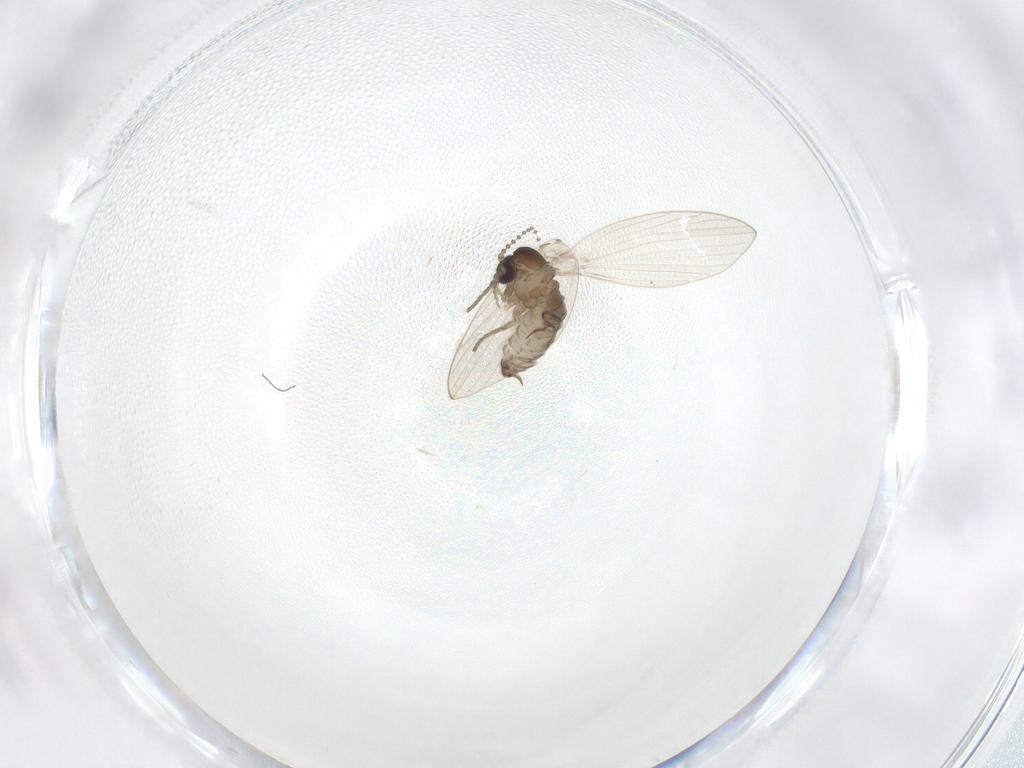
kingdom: Animalia
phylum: Arthropoda
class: Insecta
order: Diptera
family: Psychodidae
